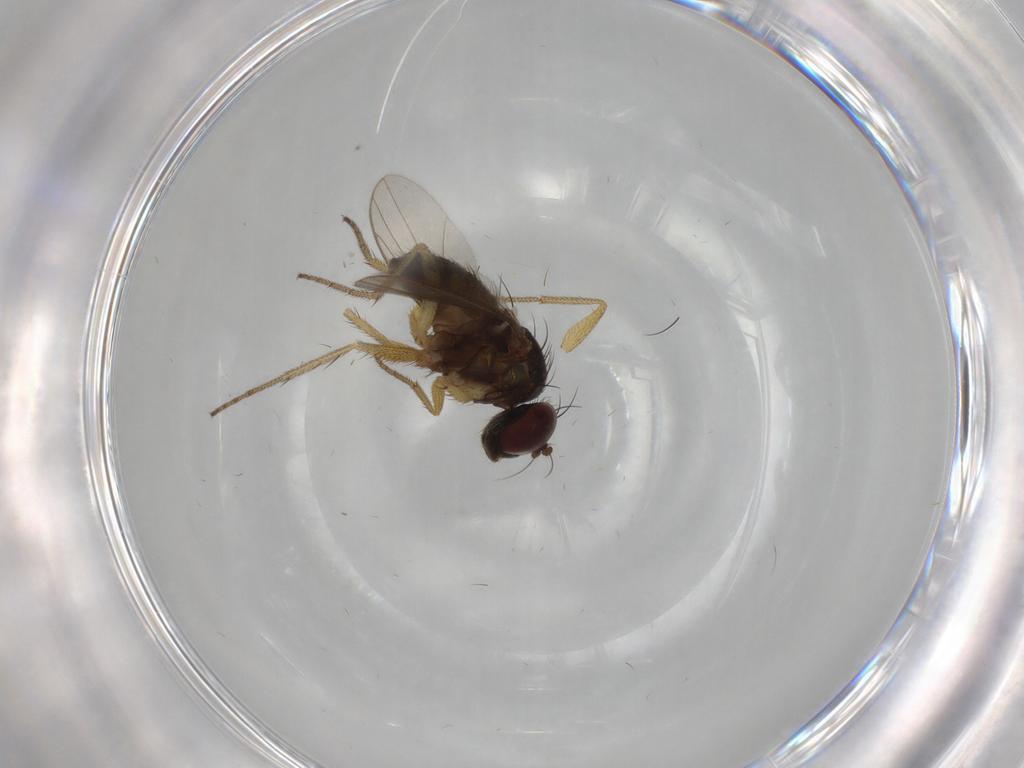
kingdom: Animalia
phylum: Arthropoda
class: Insecta
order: Diptera
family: Dolichopodidae
